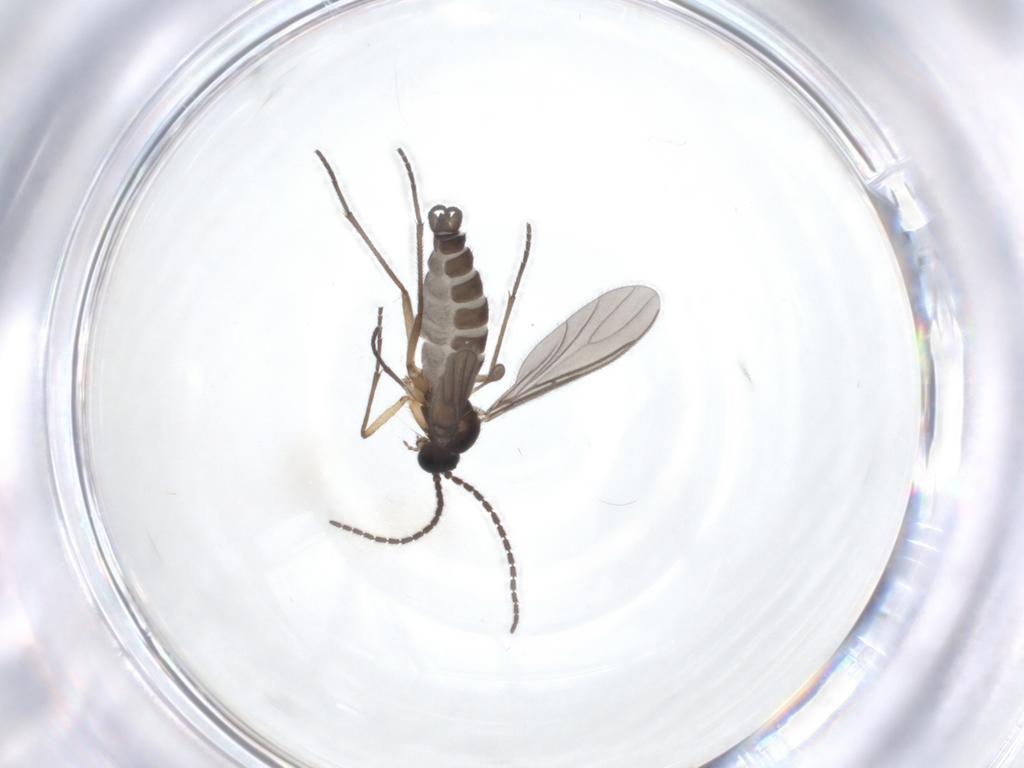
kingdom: Animalia
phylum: Arthropoda
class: Insecta
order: Diptera
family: Sciaridae
